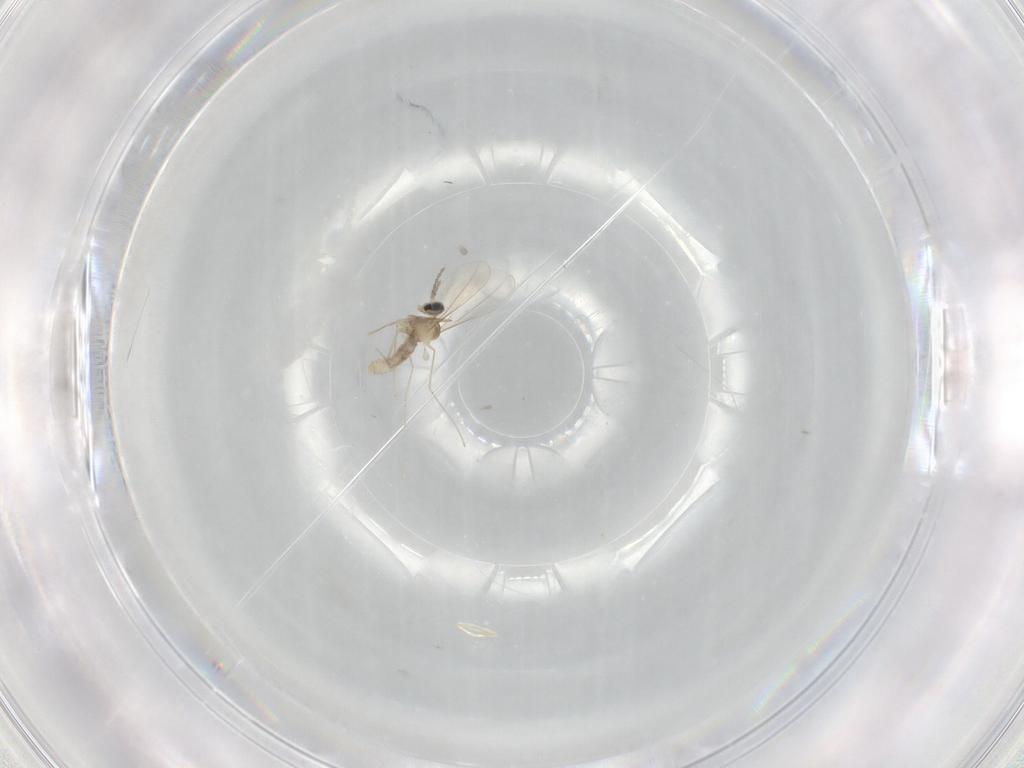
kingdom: Animalia
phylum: Arthropoda
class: Insecta
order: Diptera
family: Cecidomyiidae
